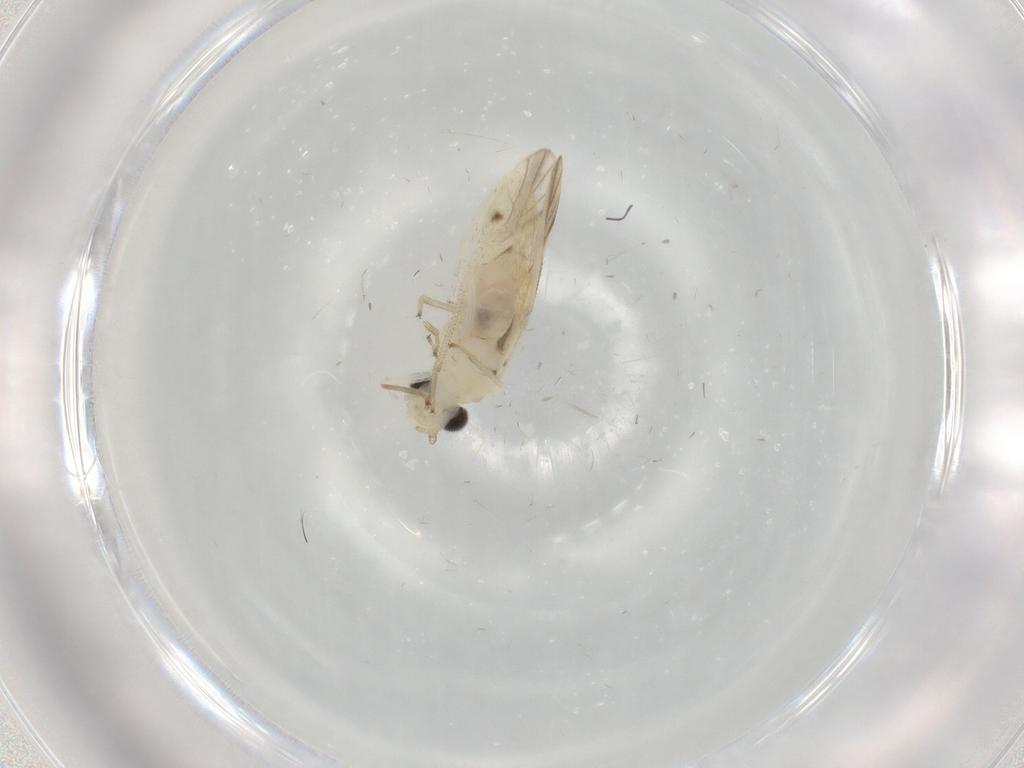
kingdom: Animalia
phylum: Arthropoda
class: Insecta
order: Psocodea
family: Caeciliusidae
